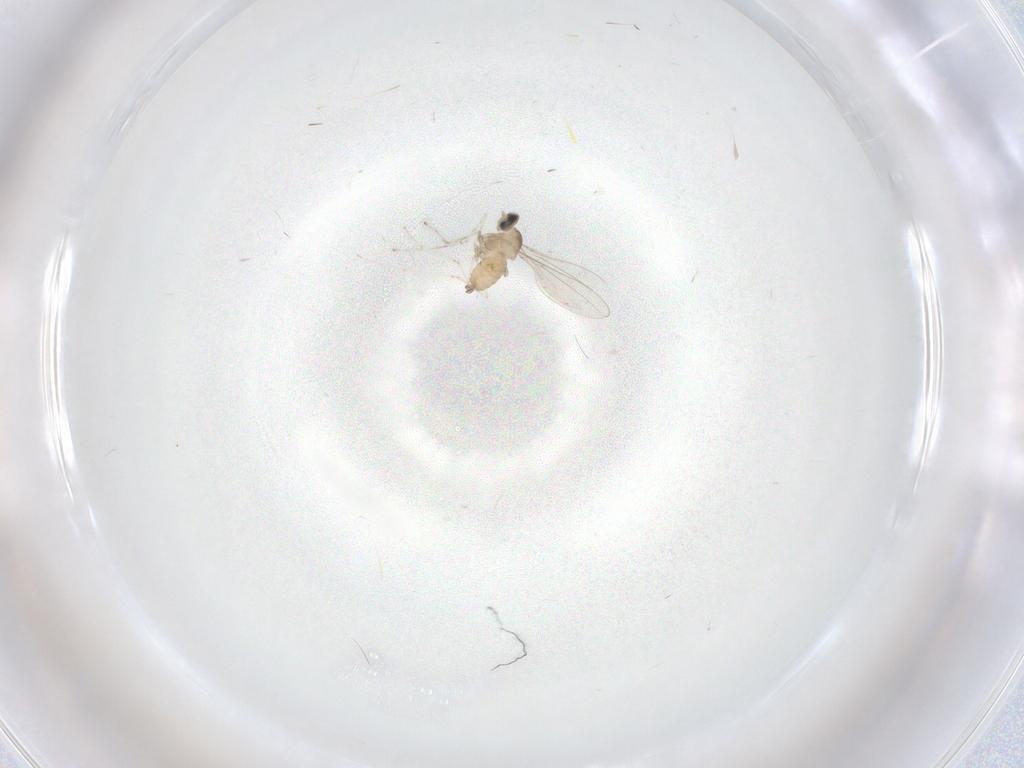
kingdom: Animalia
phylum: Arthropoda
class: Insecta
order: Diptera
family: Cecidomyiidae
